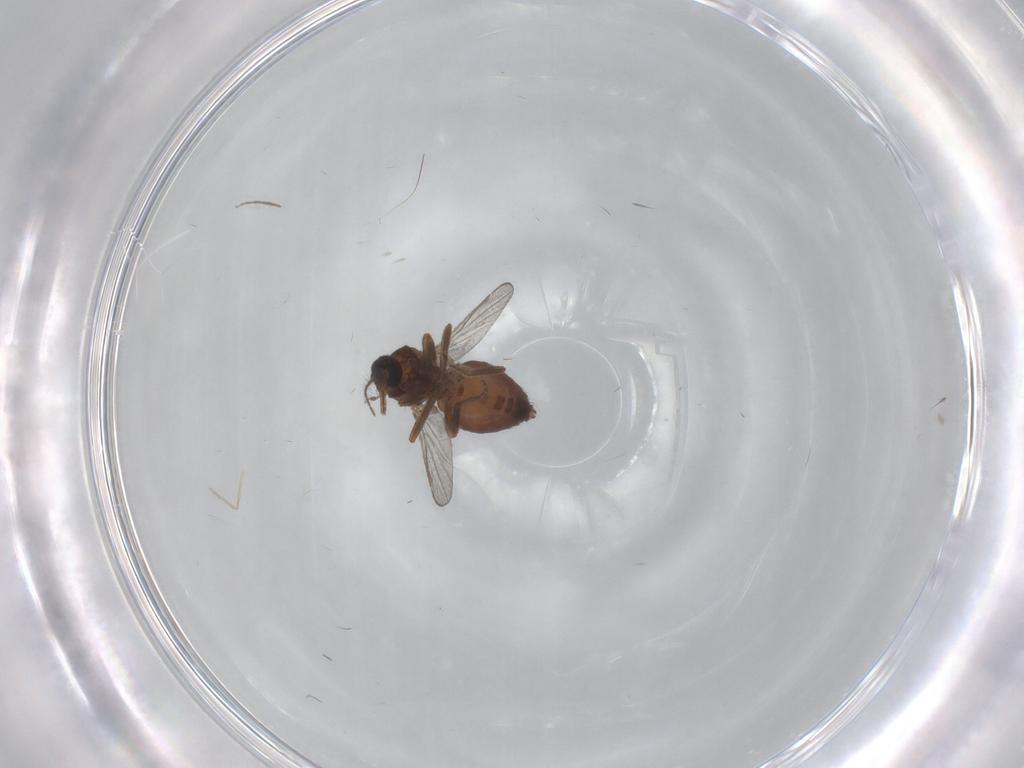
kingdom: Animalia
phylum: Arthropoda
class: Insecta
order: Diptera
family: Ceratopogonidae
